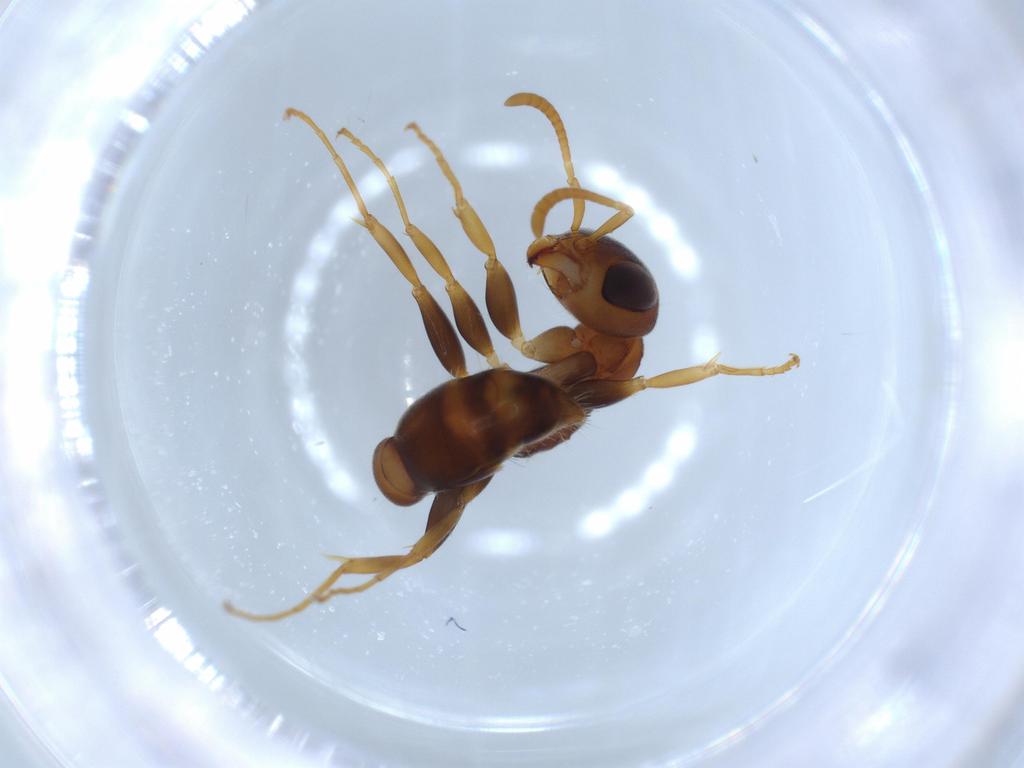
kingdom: Animalia
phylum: Arthropoda
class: Insecta
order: Hymenoptera
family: Formicidae
